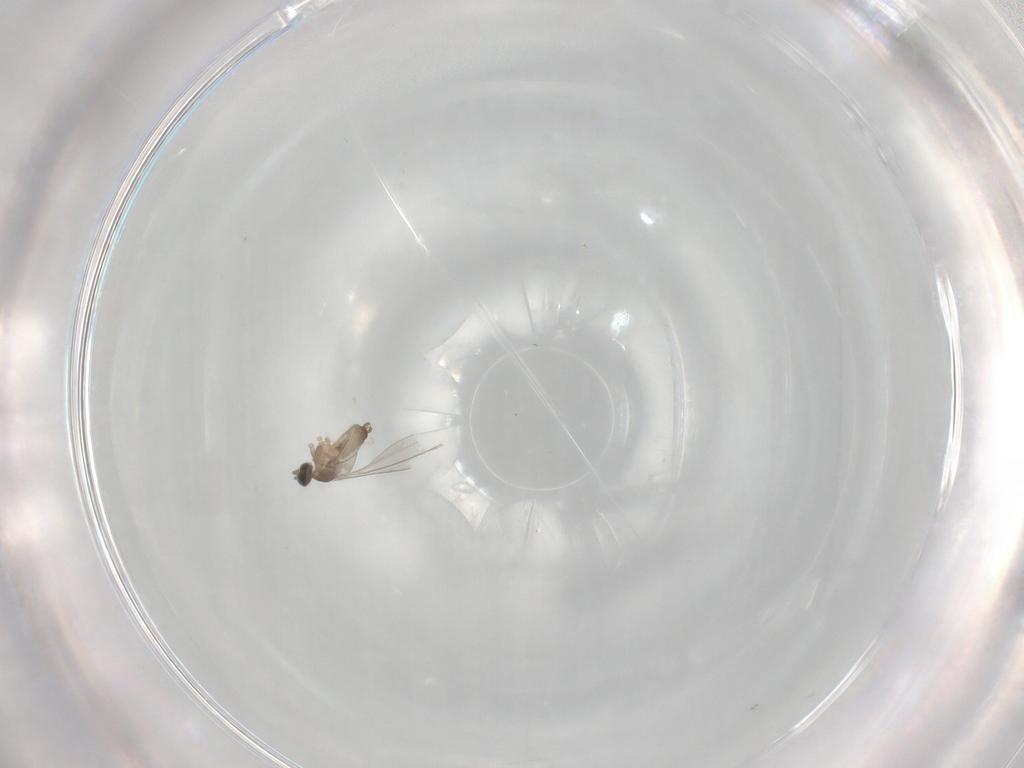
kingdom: Animalia
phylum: Arthropoda
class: Insecta
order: Diptera
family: Cecidomyiidae
